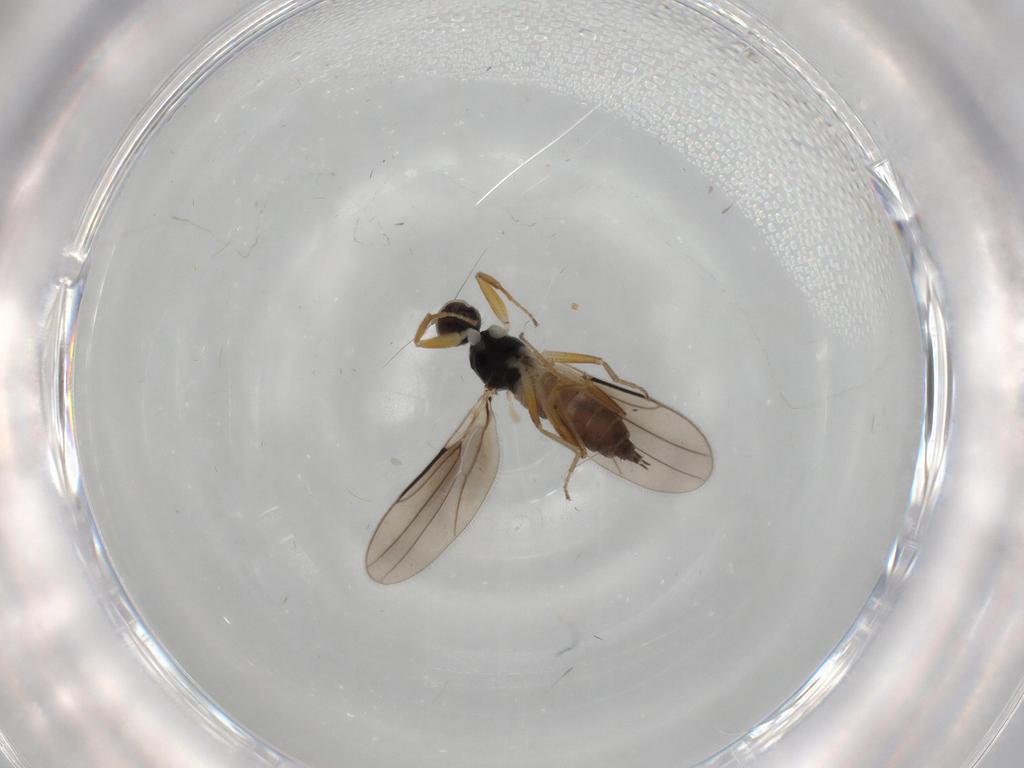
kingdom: Animalia
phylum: Arthropoda
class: Insecta
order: Diptera
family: Hybotidae
